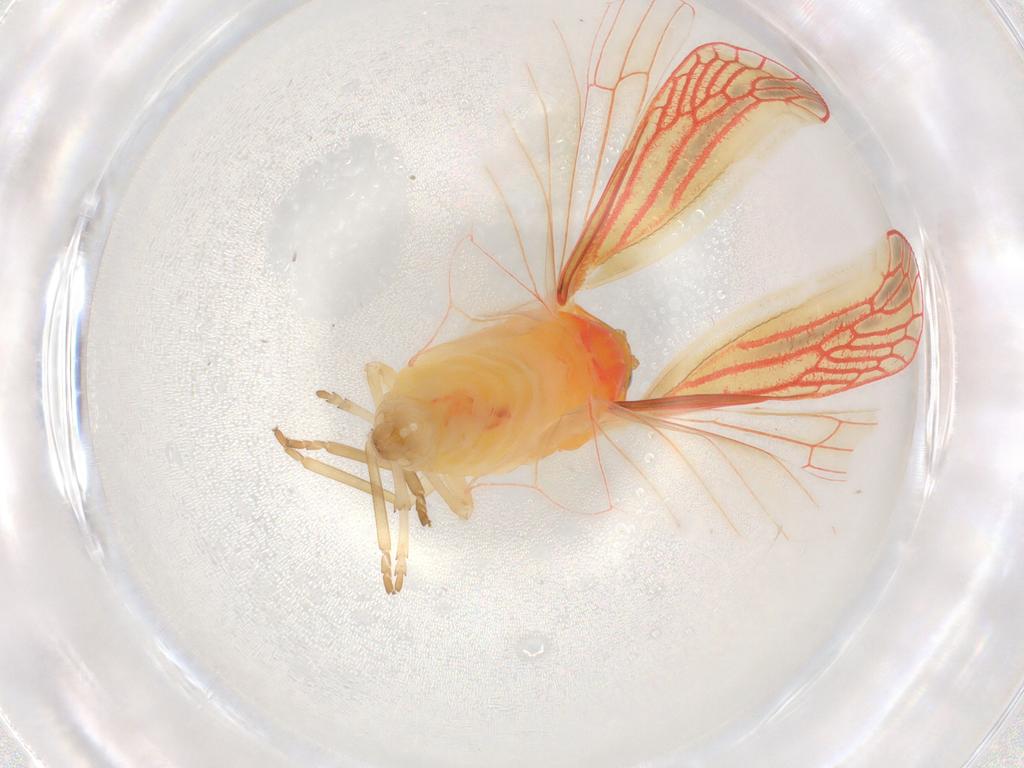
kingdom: Animalia
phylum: Arthropoda
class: Insecta
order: Hemiptera
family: Derbidae
